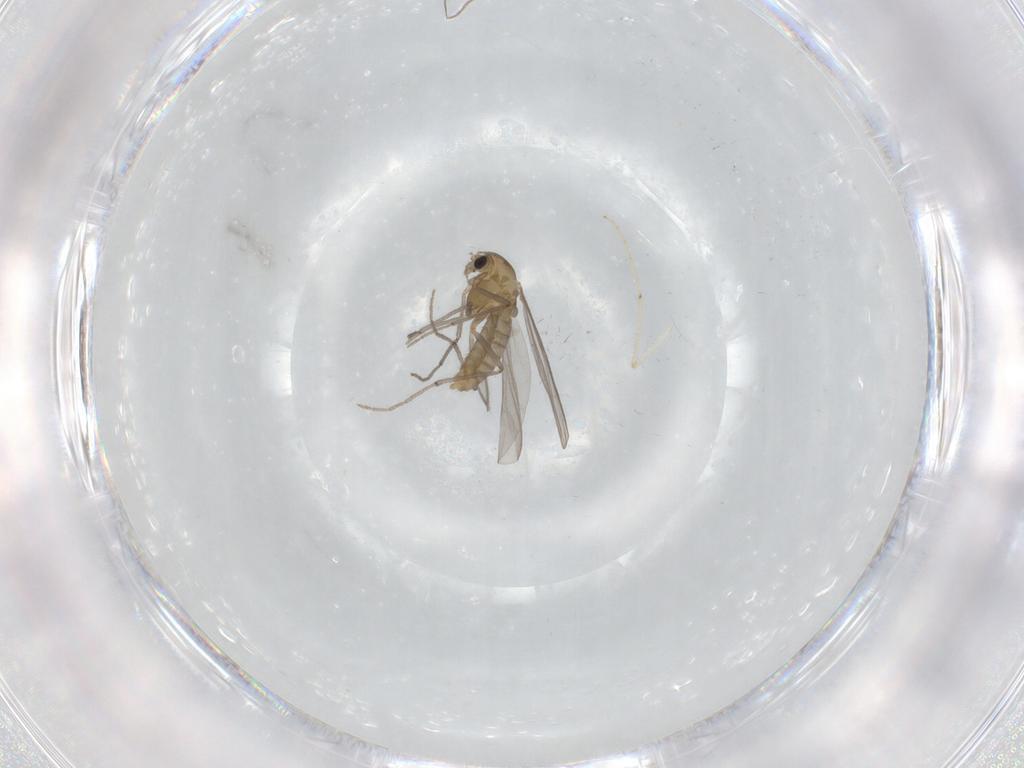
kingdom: Animalia
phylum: Arthropoda
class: Insecta
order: Diptera
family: Chironomidae
